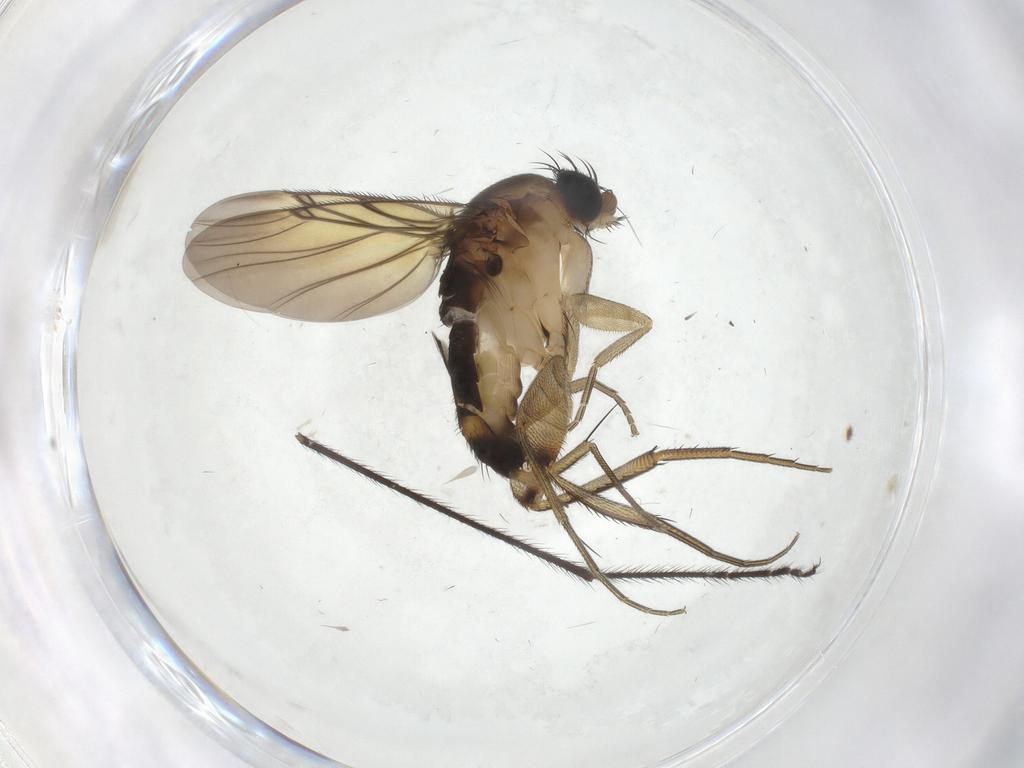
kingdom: Animalia
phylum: Arthropoda
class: Insecta
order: Diptera
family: Phoridae
